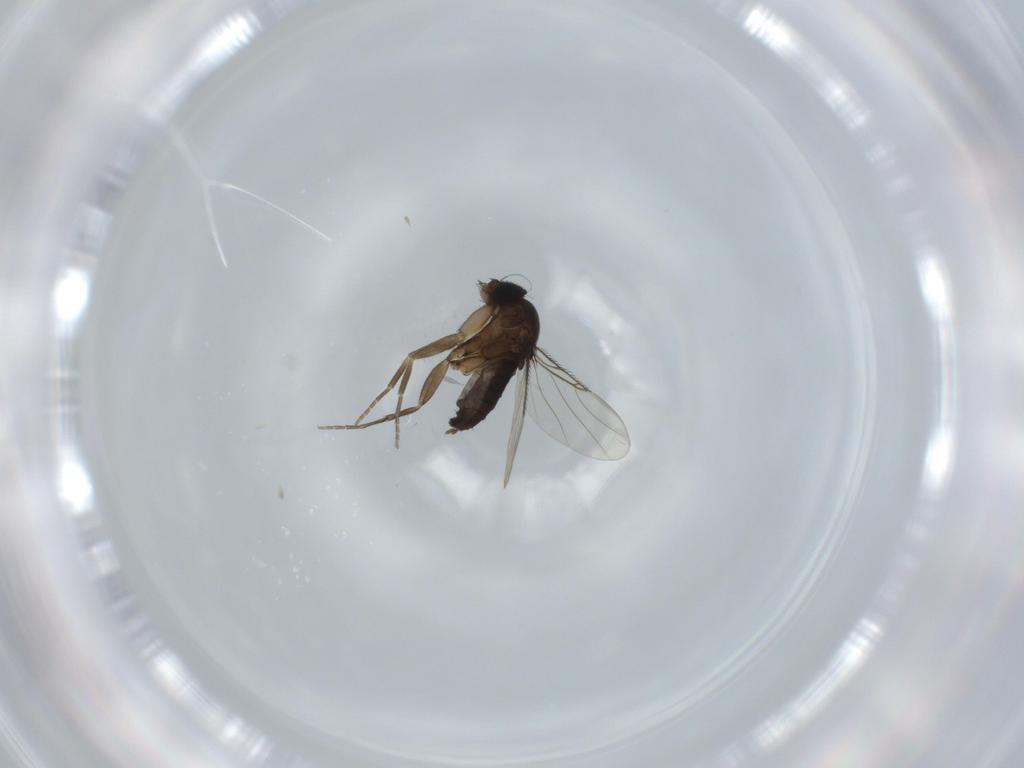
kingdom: Animalia
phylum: Arthropoda
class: Insecta
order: Diptera
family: Phoridae
